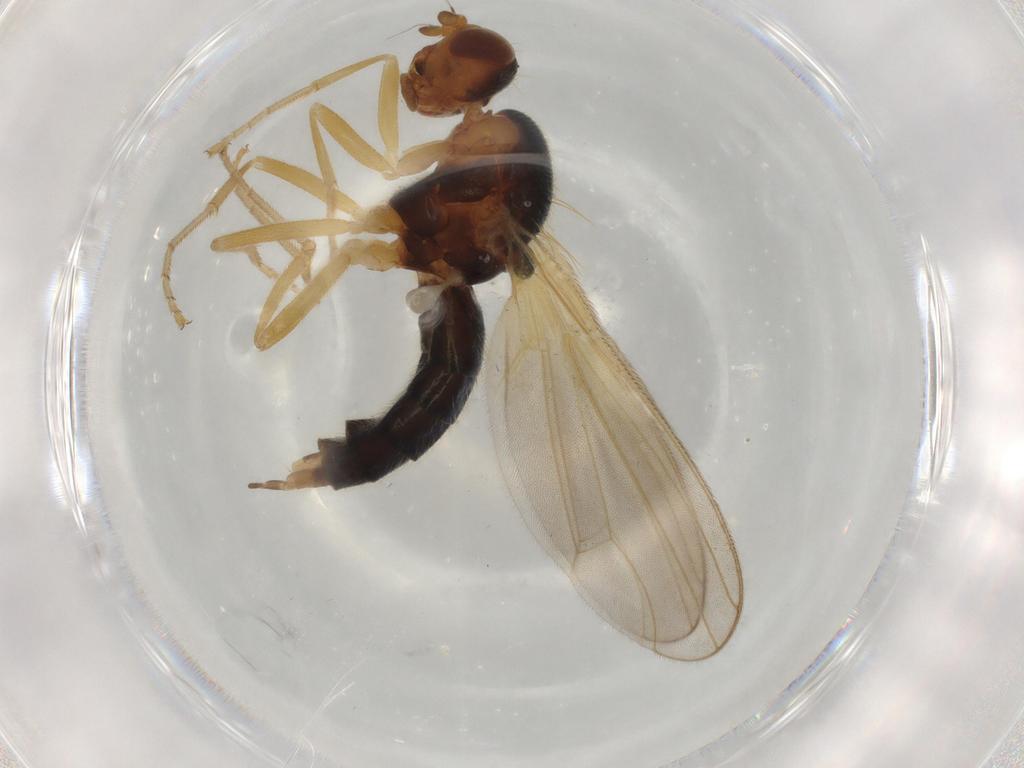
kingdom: Animalia
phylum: Arthropoda
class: Insecta
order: Diptera
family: Psilidae
